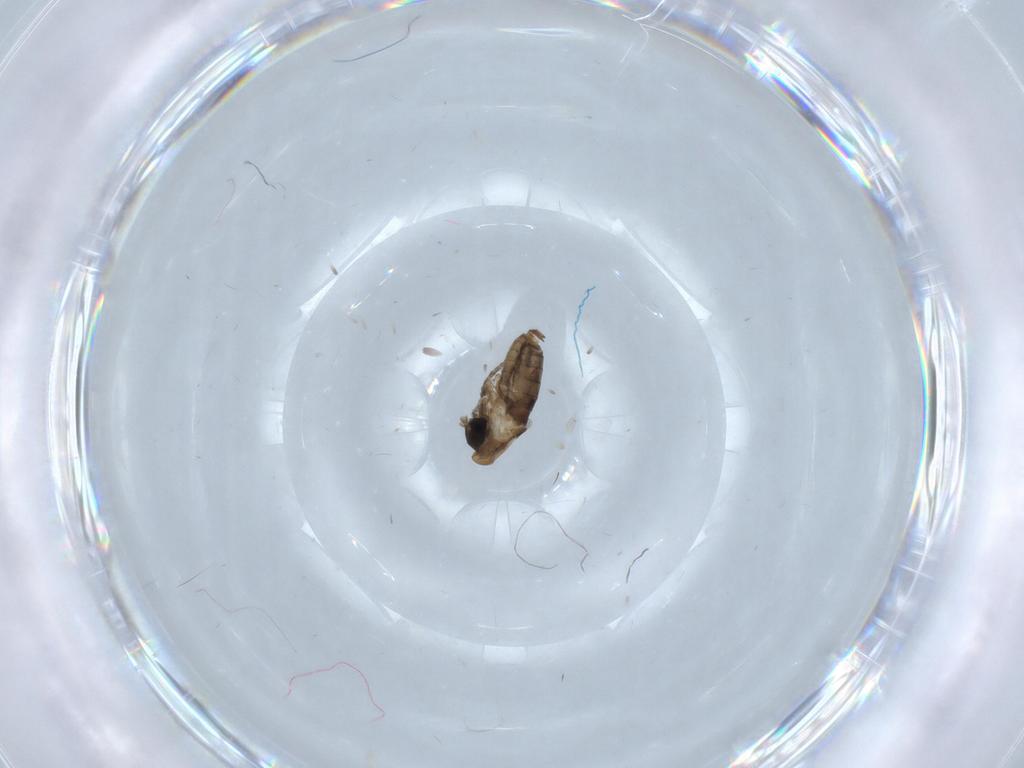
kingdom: Animalia
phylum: Arthropoda
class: Insecta
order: Diptera
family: Psychodidae
